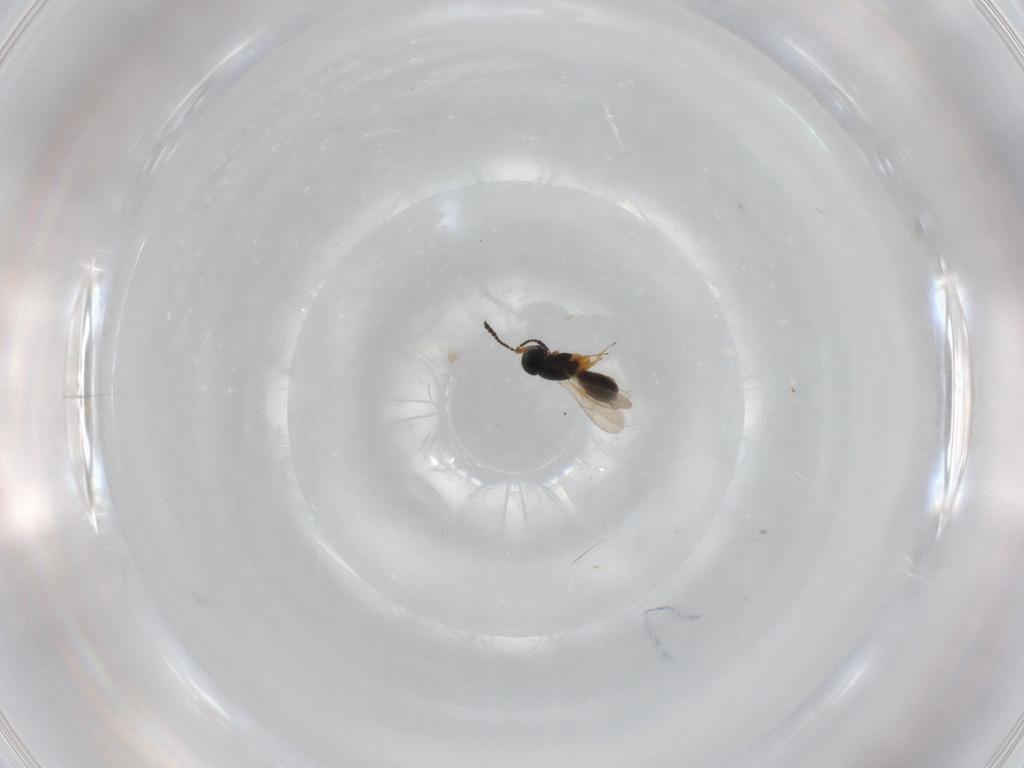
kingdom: Animalia
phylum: Arthropoda
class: Insecta
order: Hymenoptera
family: Scelionidae
